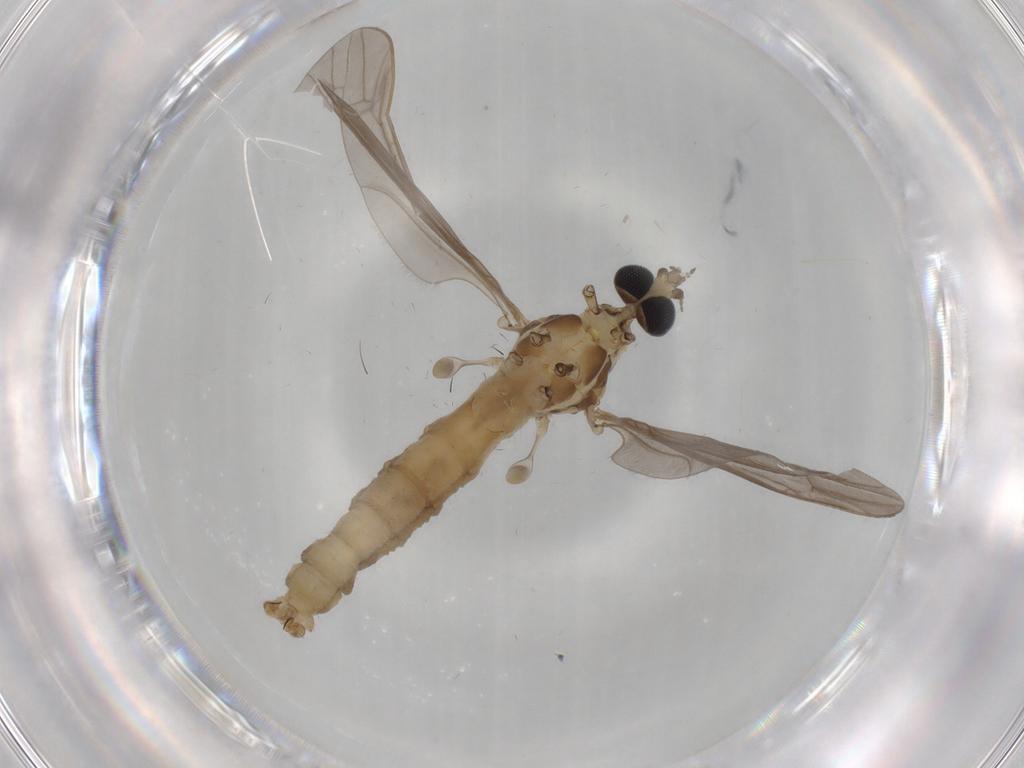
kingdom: Animalia
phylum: Arthropoda
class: Insecta
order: Diptera
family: Limoniidae
